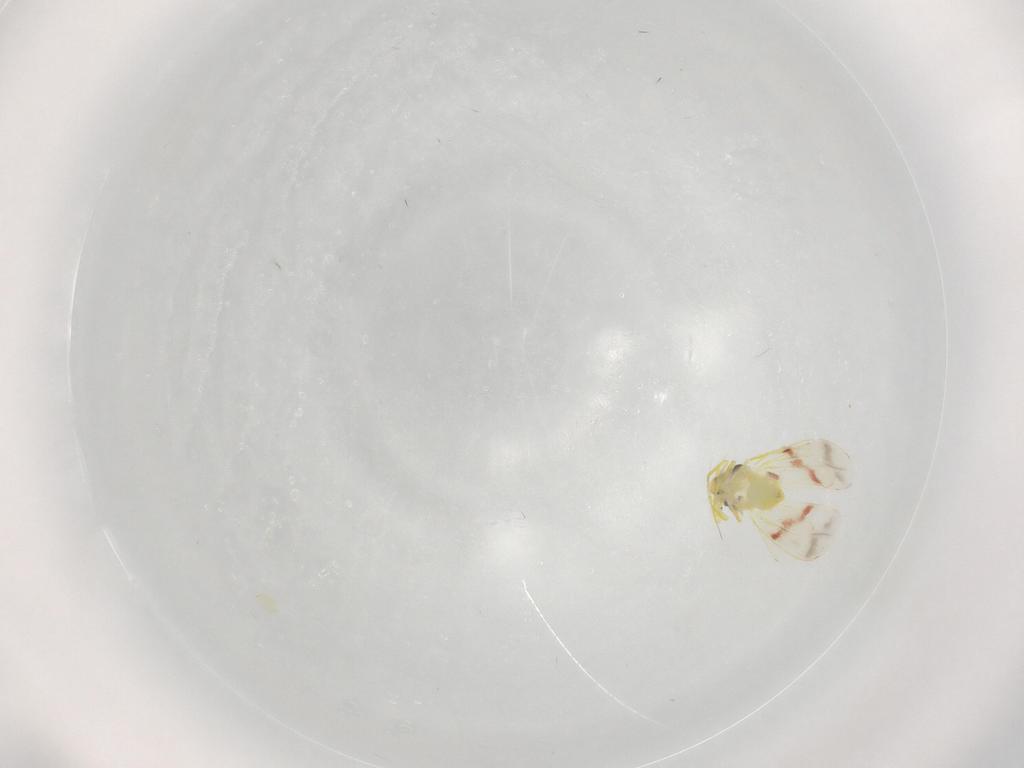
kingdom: Animalia
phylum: Arthropoda
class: Insecta
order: Hemiptera
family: Cicadellidae
